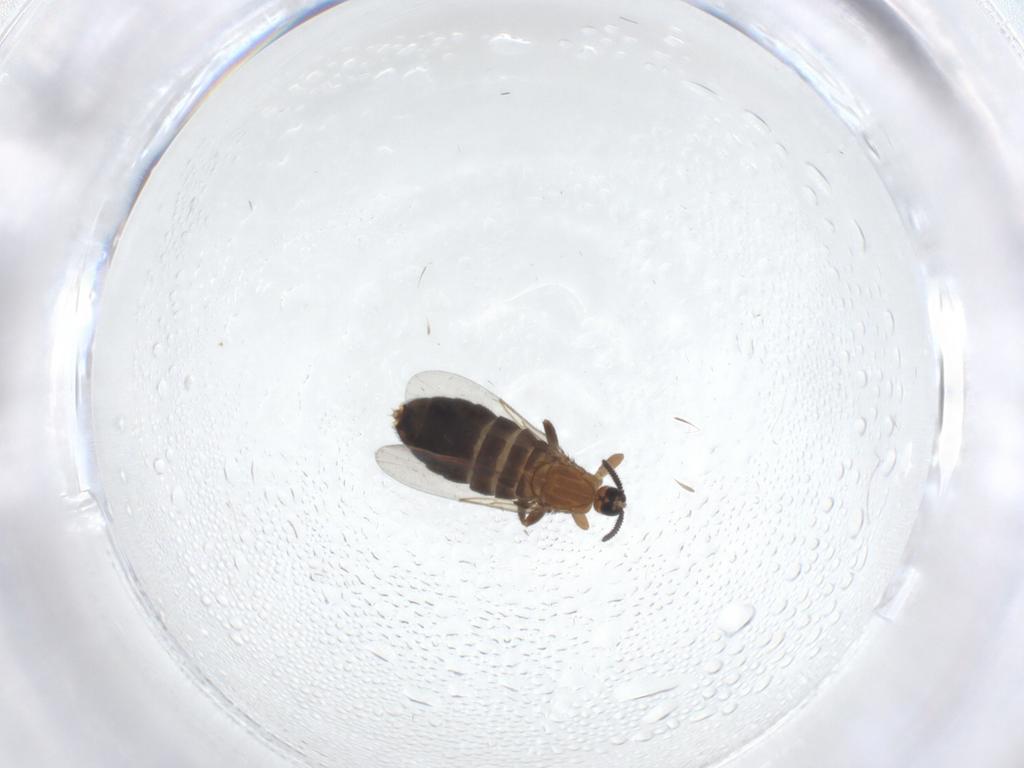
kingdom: Animalia
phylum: Arthropoda
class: Insecta
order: Diptera
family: Scatopsidae
